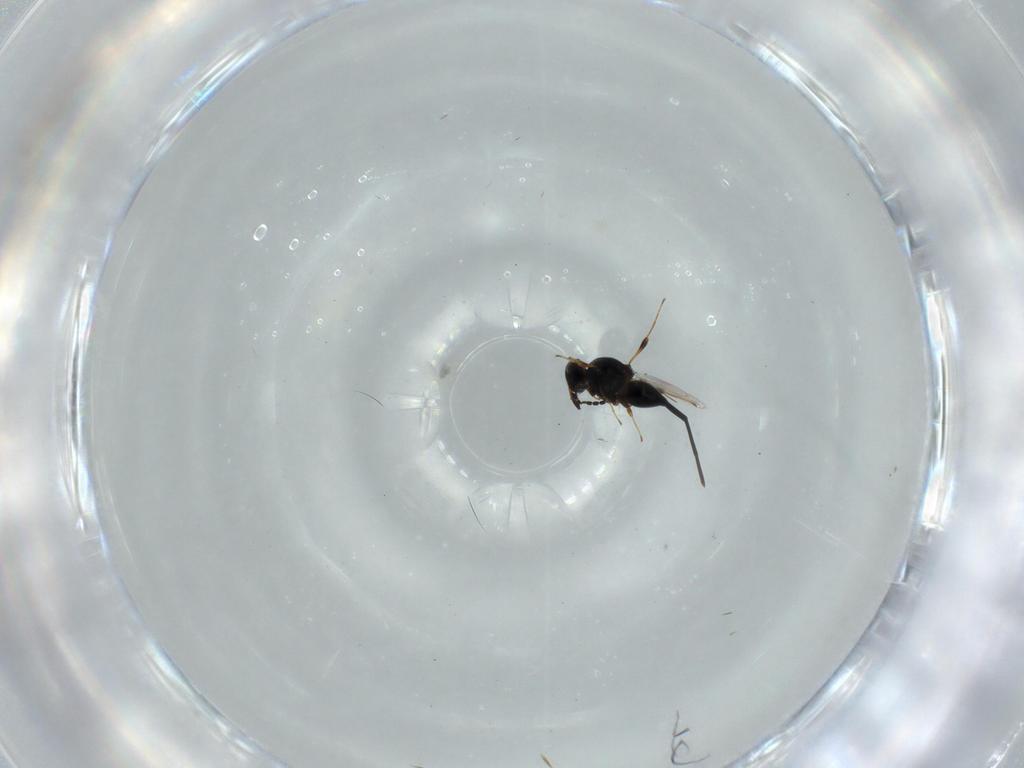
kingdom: Animalia
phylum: Arthropoda
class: Insecta
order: Hymenoptera
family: Platygastridae
